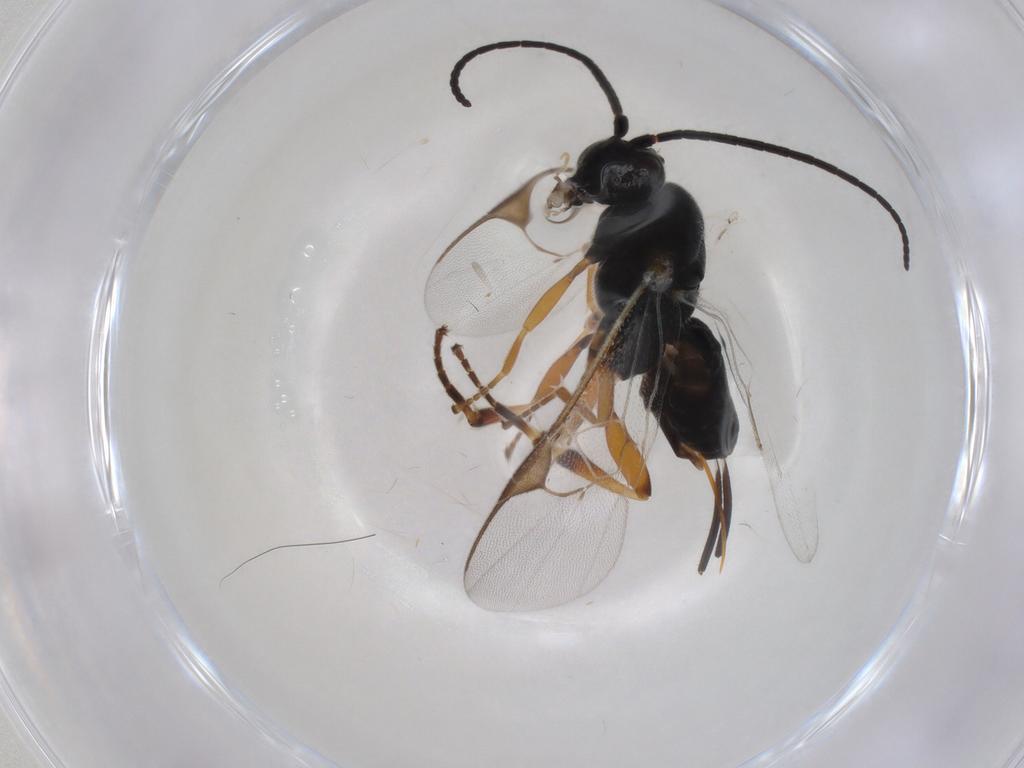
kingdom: Animalia
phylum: Arthropoda
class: Insecta
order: Hymenoptera
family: Braconidae
